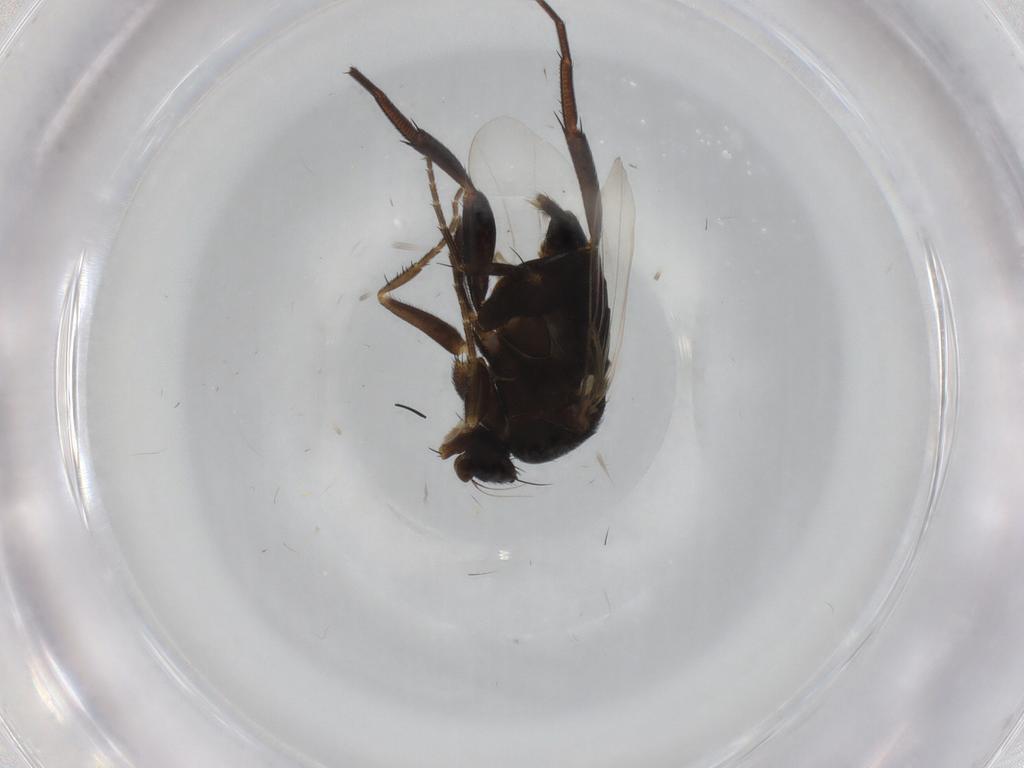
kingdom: Animalia
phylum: Arthropoda
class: Insecta
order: Diptera
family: Phoridae
